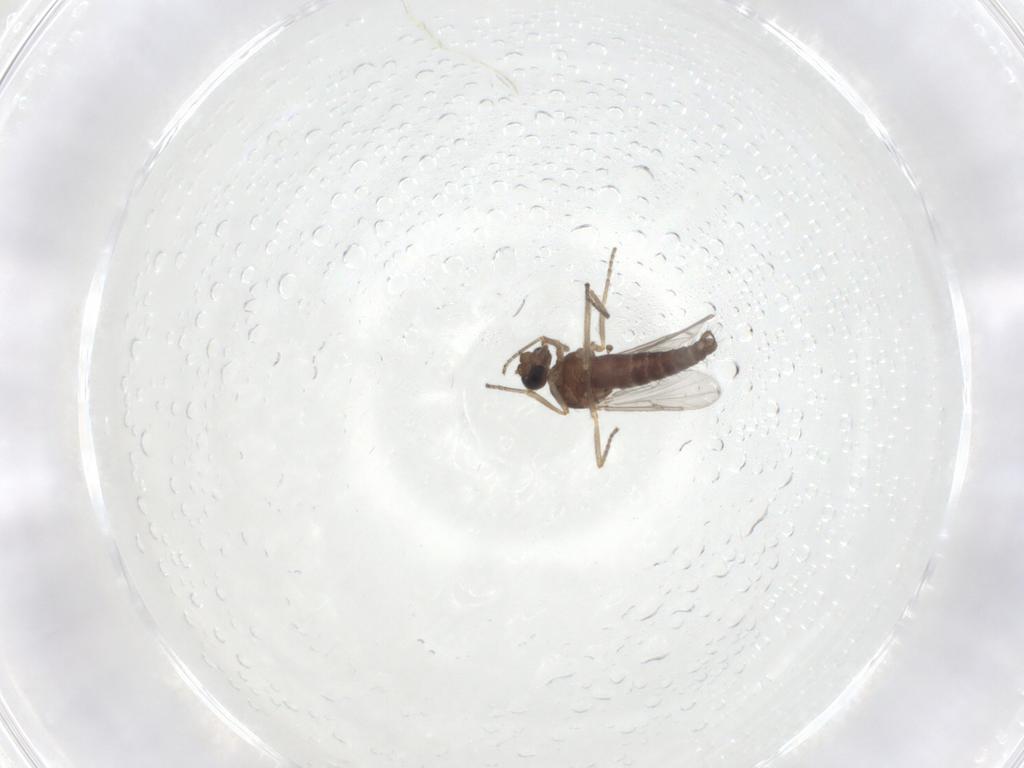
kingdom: Animalia
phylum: Arthropoda
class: Insecta
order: Diptera
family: Ceratopogonidae
